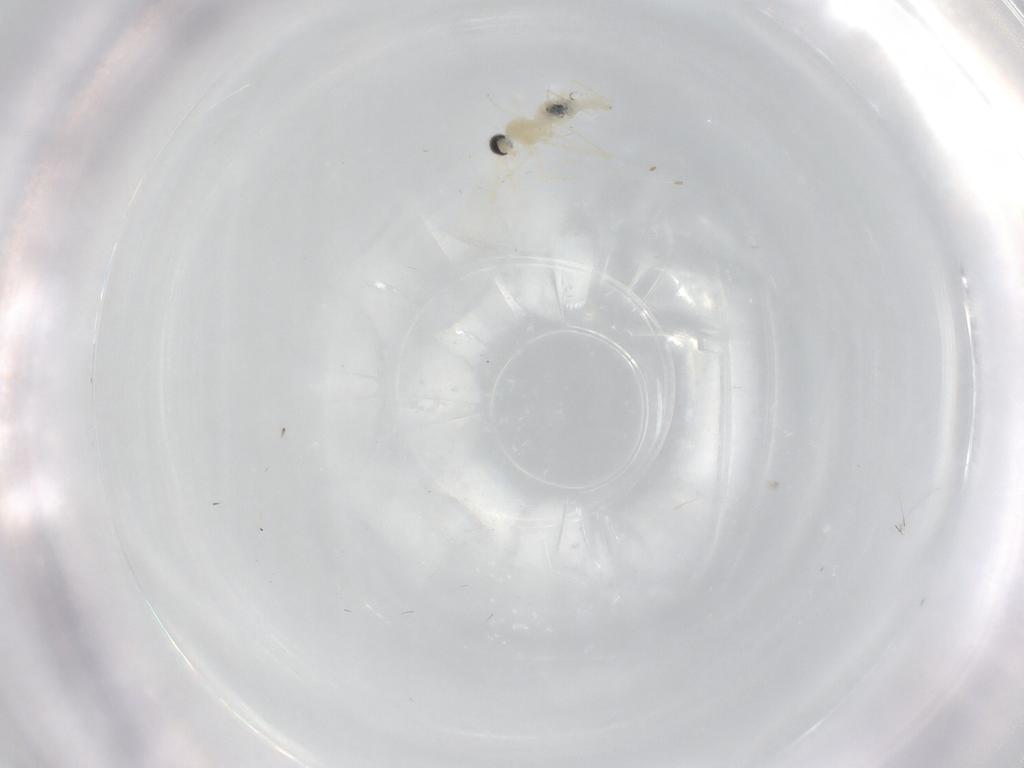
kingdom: Animalia
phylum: Arthropoda
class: Insecta
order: Diptera
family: Cecidomyiidae
